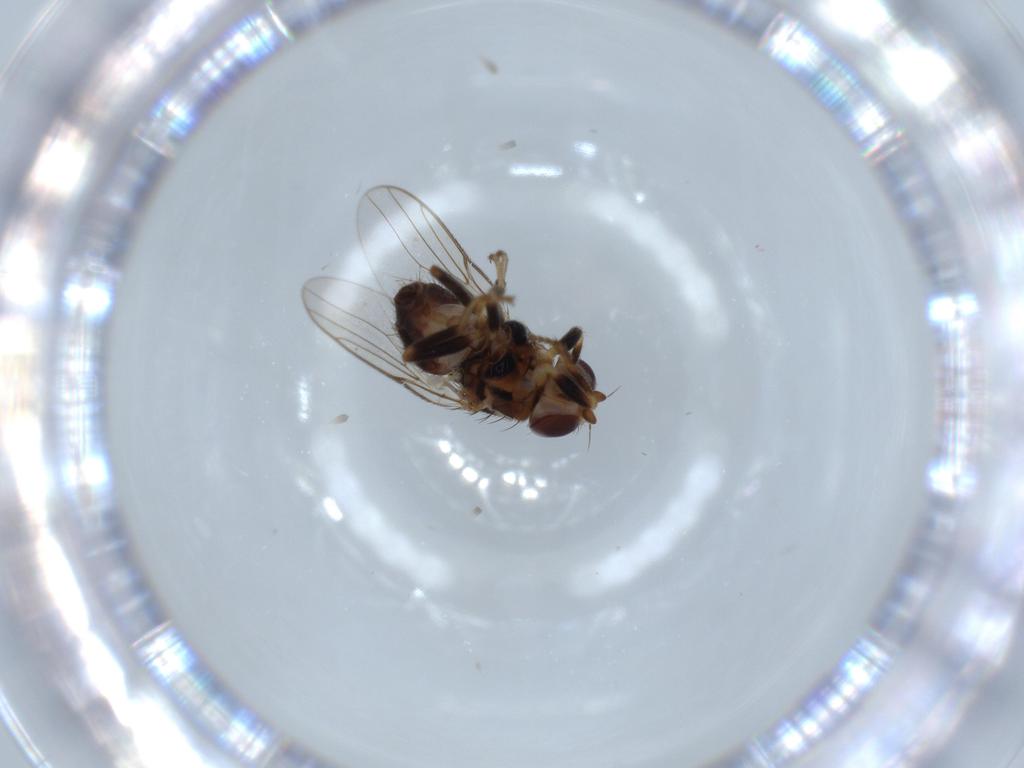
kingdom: Animalia
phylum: Arthropoda
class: Insecta
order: Diptera
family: Chloropidae
